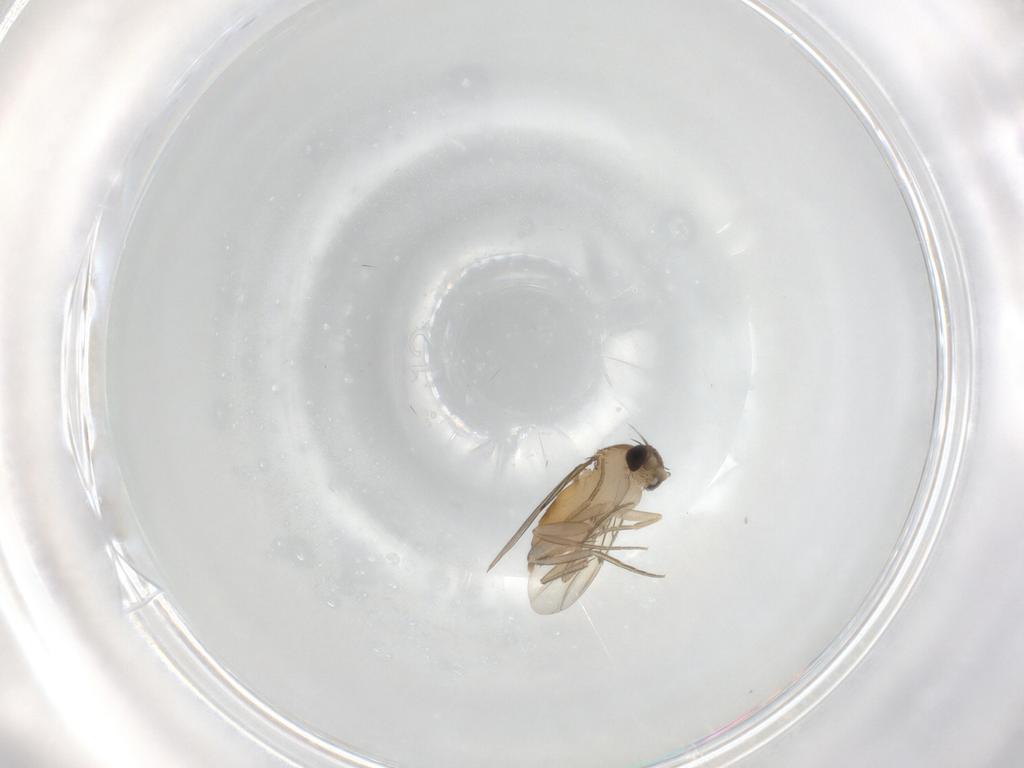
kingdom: Animalia
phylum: Arthropoda
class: Insecta
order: Diptera
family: Phoridae
